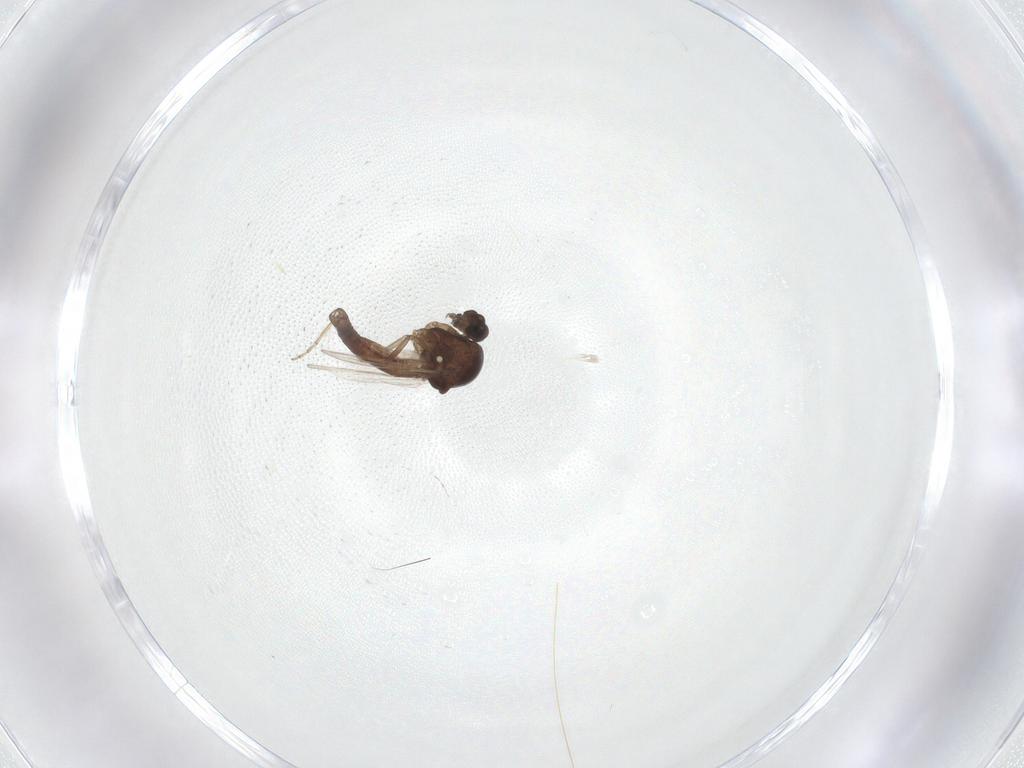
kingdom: Animalia
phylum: Arthropoda
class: Insecta
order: Diptera
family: Ceratopogonidae
